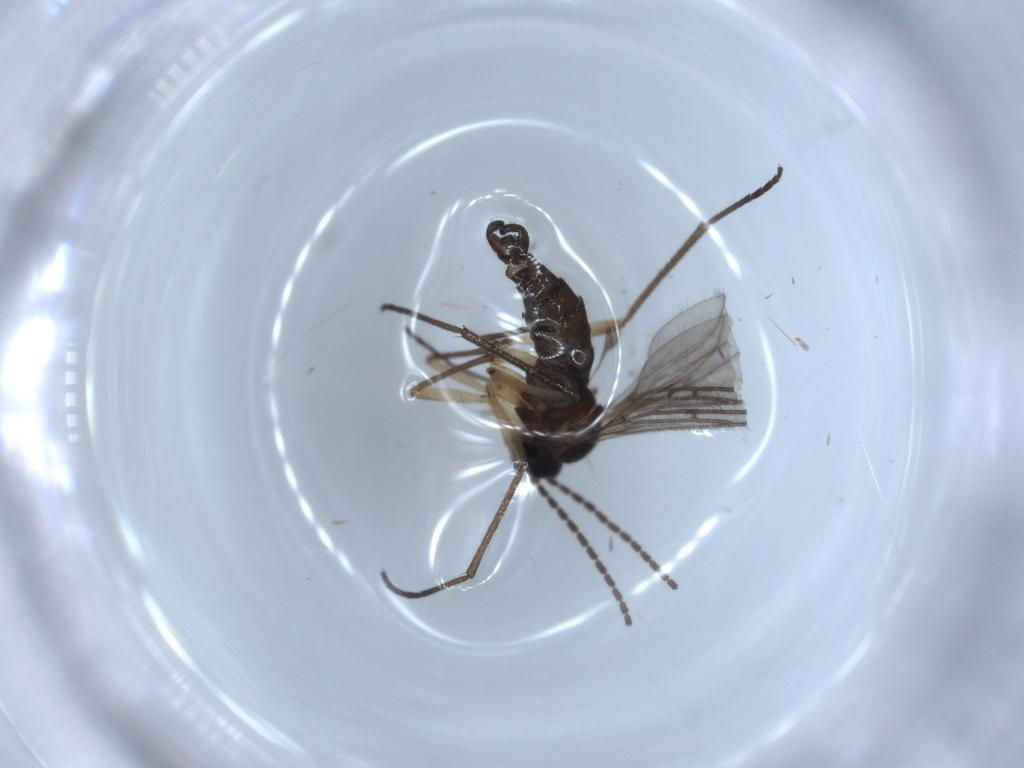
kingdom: Animalia
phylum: Arthropoda
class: Insecta
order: Diptera
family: Sciaridae
